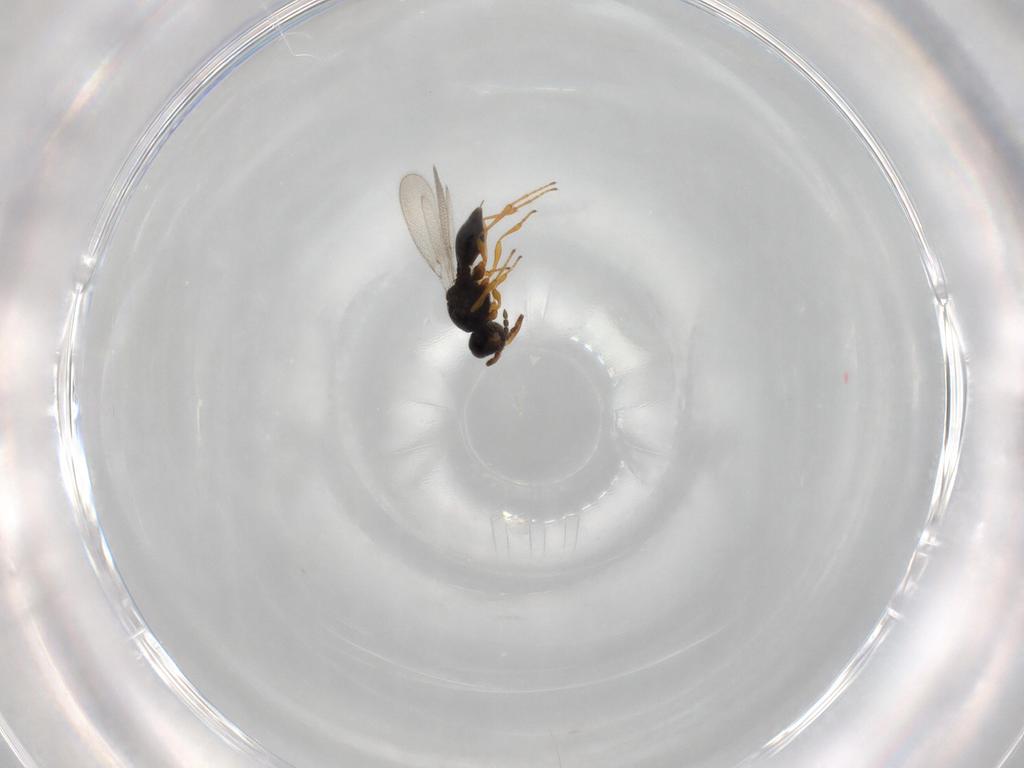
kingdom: Animalia
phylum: Arthropoda
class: Insecta
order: Diptera
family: Mythicomyiidae
